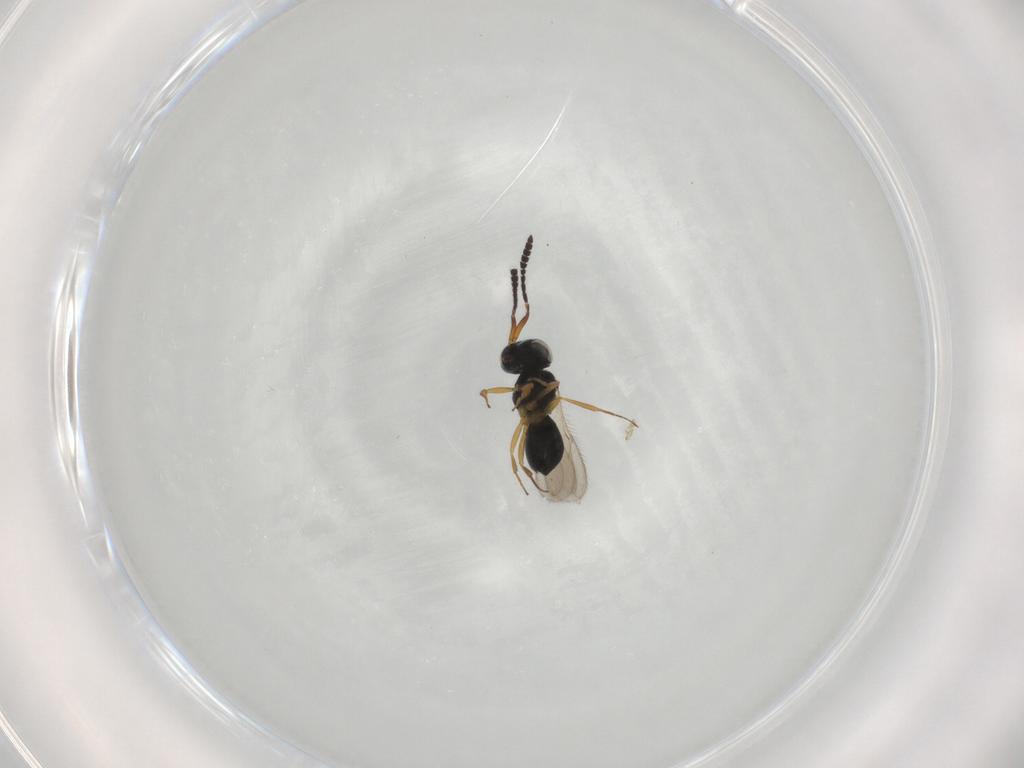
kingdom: Animalia
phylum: Arthropoda
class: Insecta
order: Hymenoptera
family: Scelionidae
